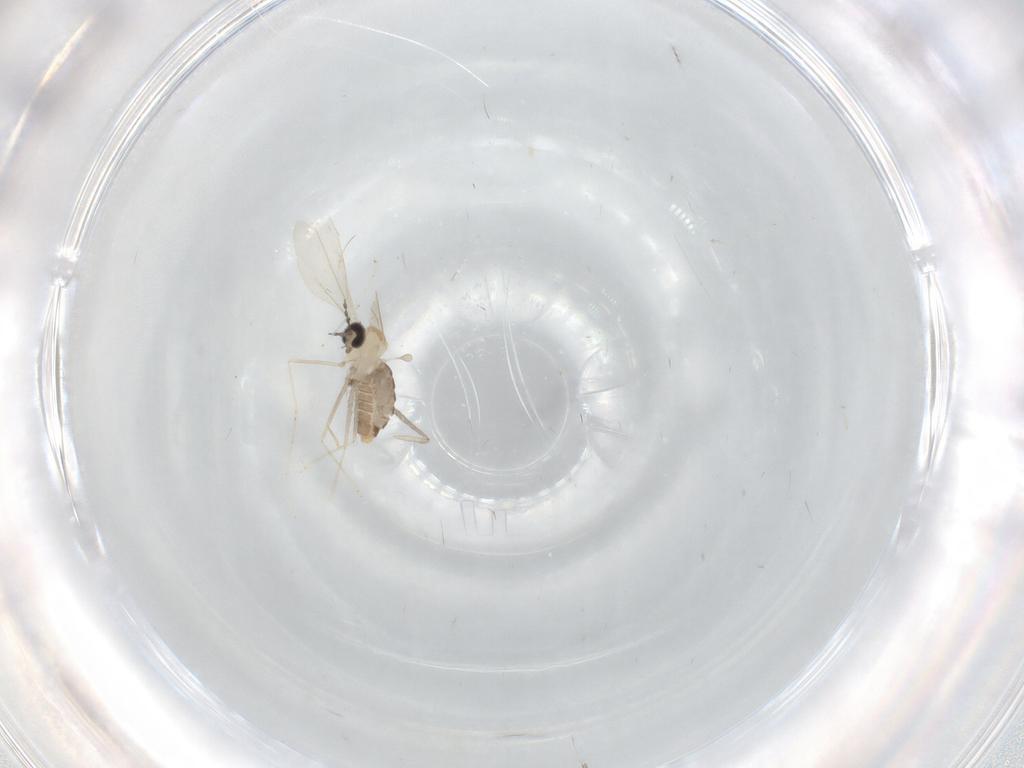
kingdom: Animalia
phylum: Arthropoda
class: Insecta
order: Diptera
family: Cecidomyiidae
